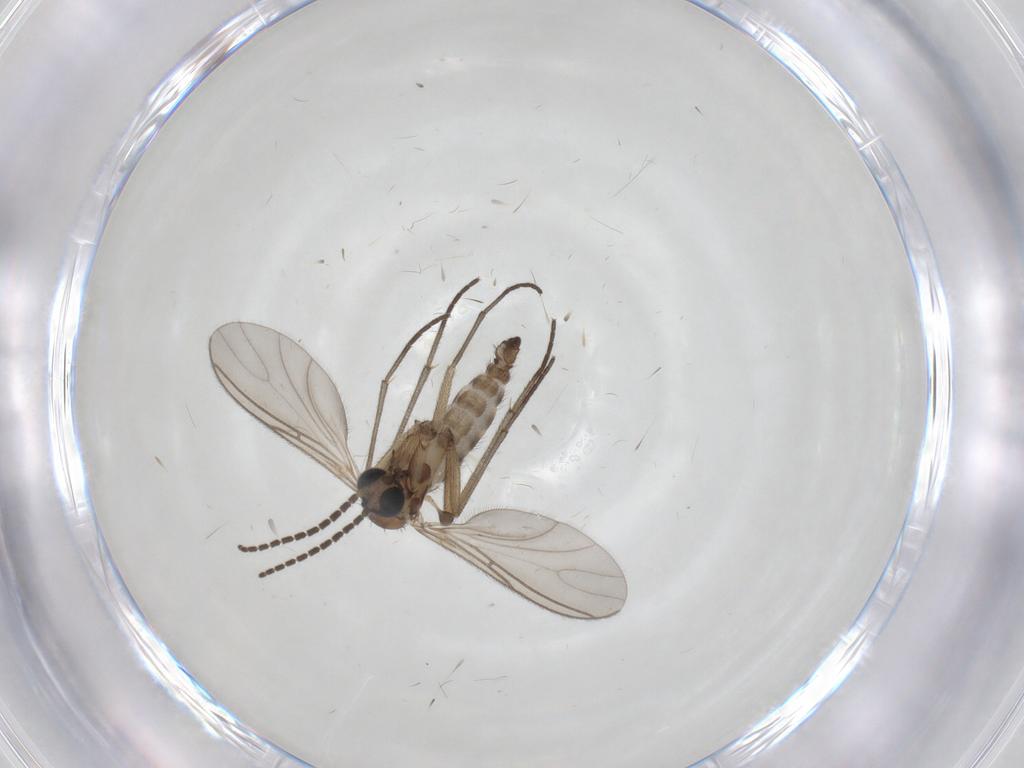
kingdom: Animalia
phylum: Arthropoda
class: Insecta
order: Diptera
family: Sciaridae
